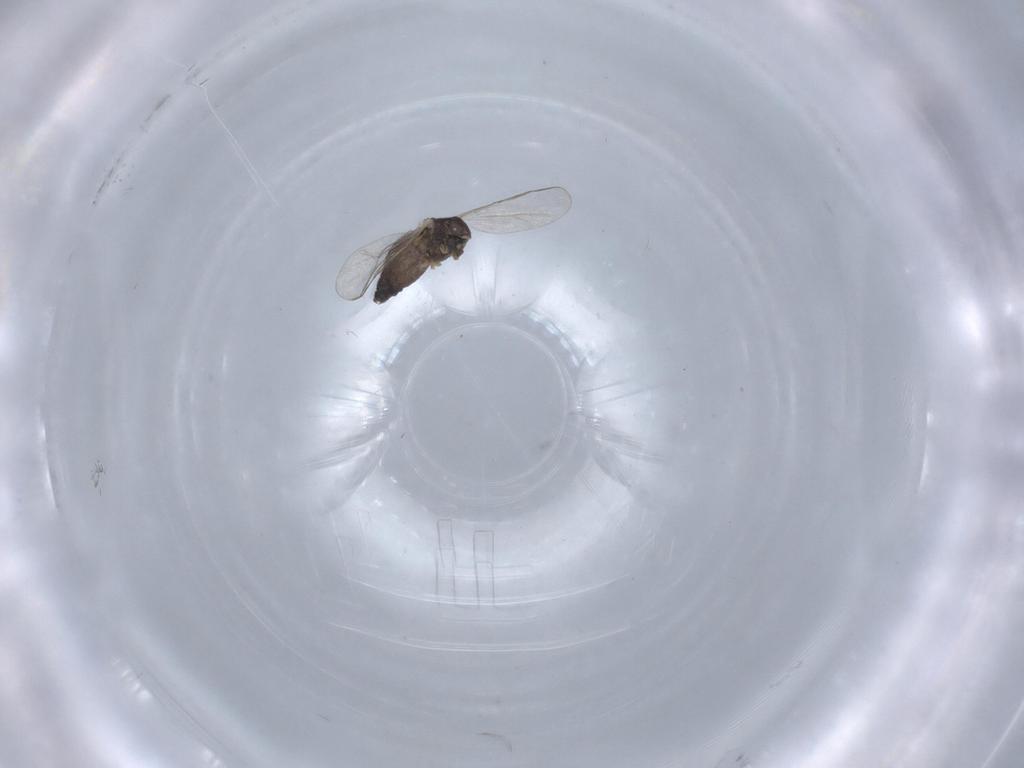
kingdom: Animalia
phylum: Arthropoda
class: Insecta
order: Diptera
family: Chironomidae
